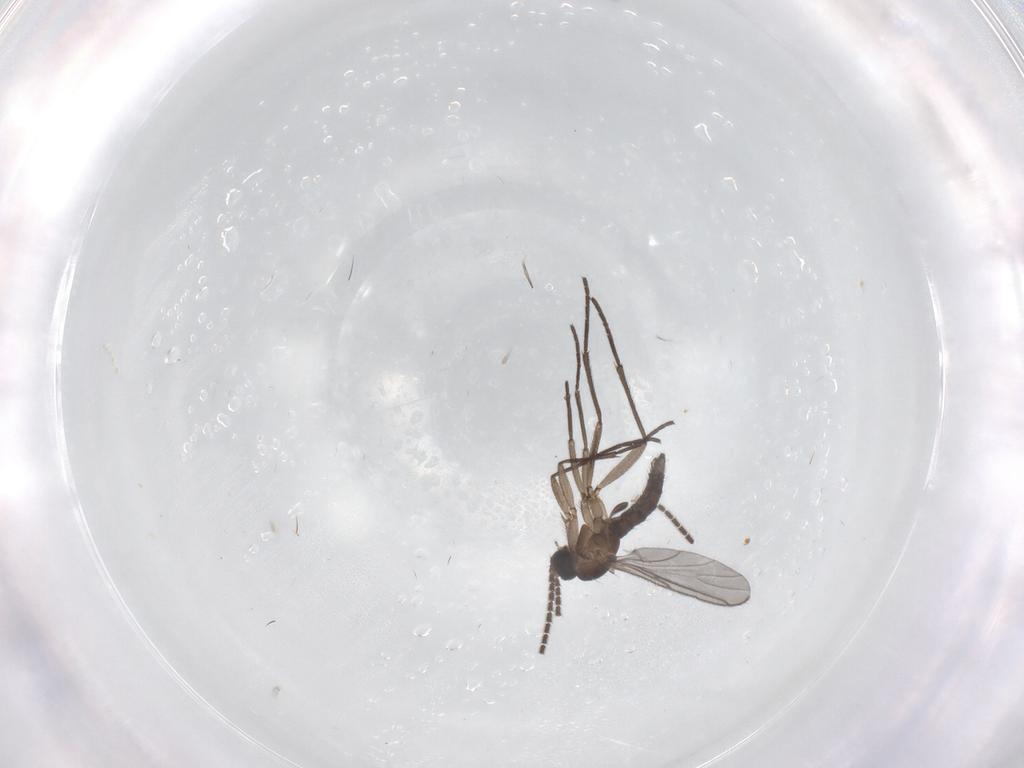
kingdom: Animalia
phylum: Arthropoda
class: Insecta
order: Diptera
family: Sciaridae
